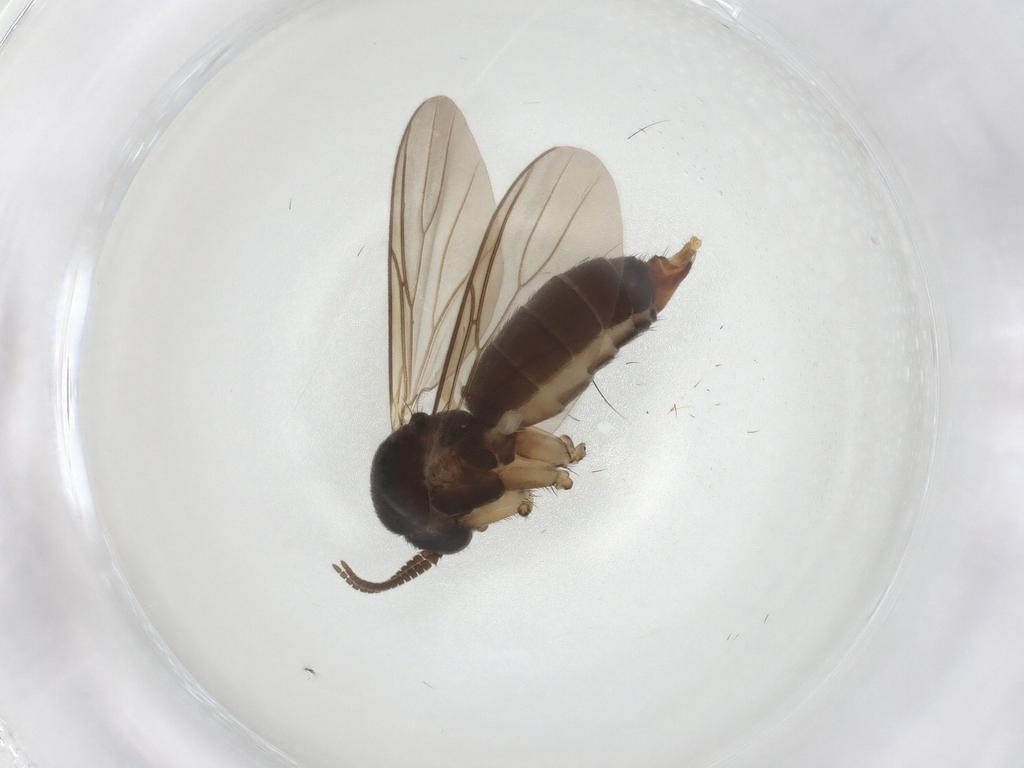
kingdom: Animalia
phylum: Arthropoda
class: Insecta
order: Diptera
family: Mycetophilidae
